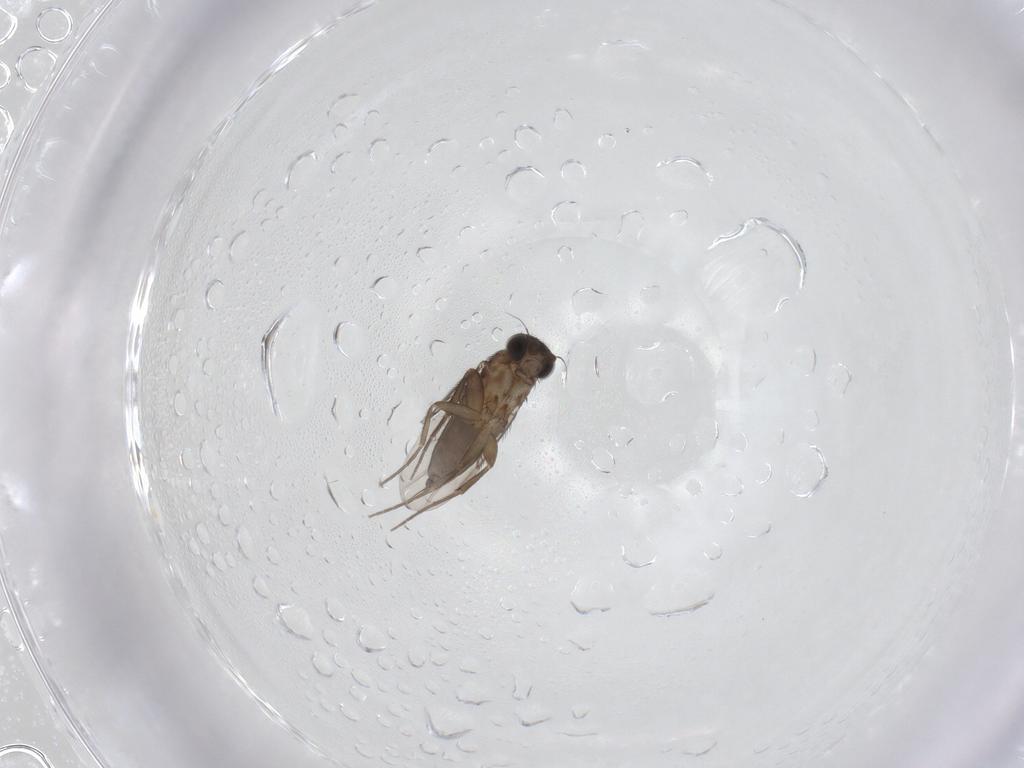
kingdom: Animalia
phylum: Arthropoda
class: Insecta
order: Diptera
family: Phoridae
